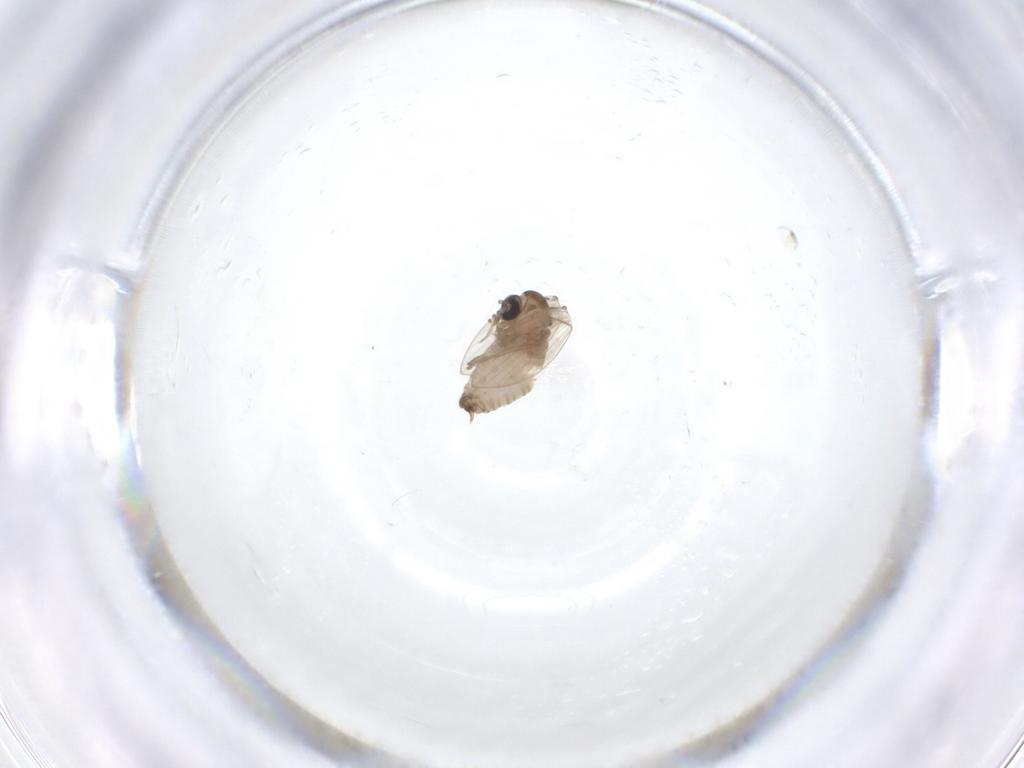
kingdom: Animalia
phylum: Arthropoda
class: Insecta
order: Diptera
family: Psychodidae
